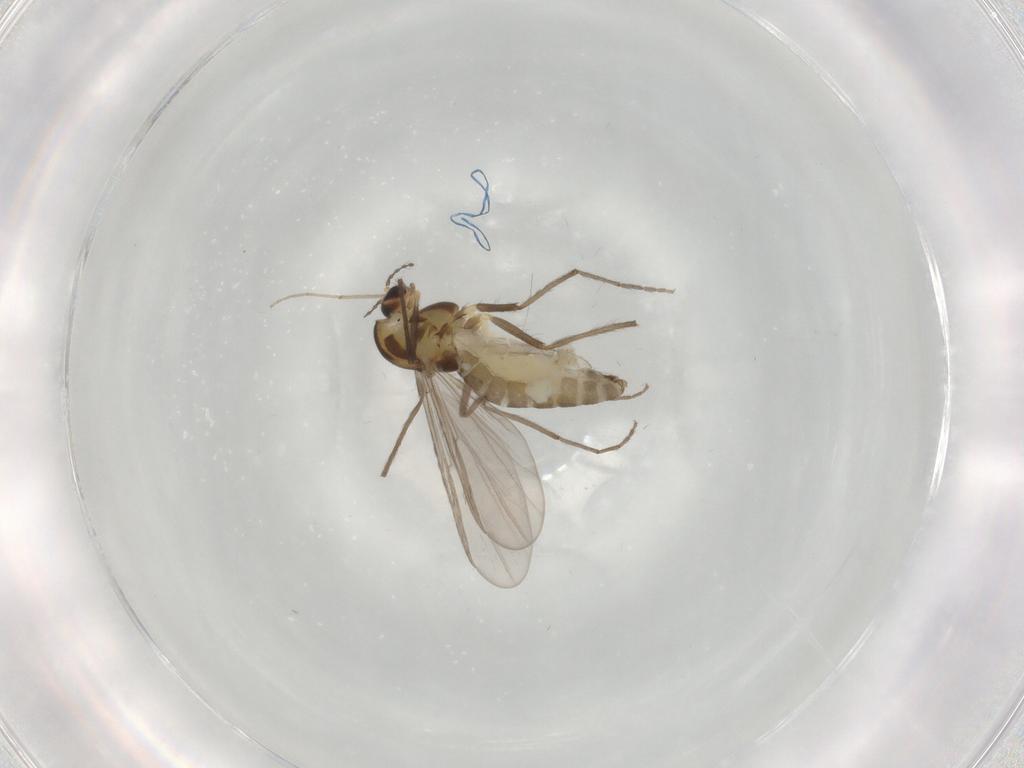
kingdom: Animalia
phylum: Arthropoda
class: Insecta
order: Diptera
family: Chironomidae
